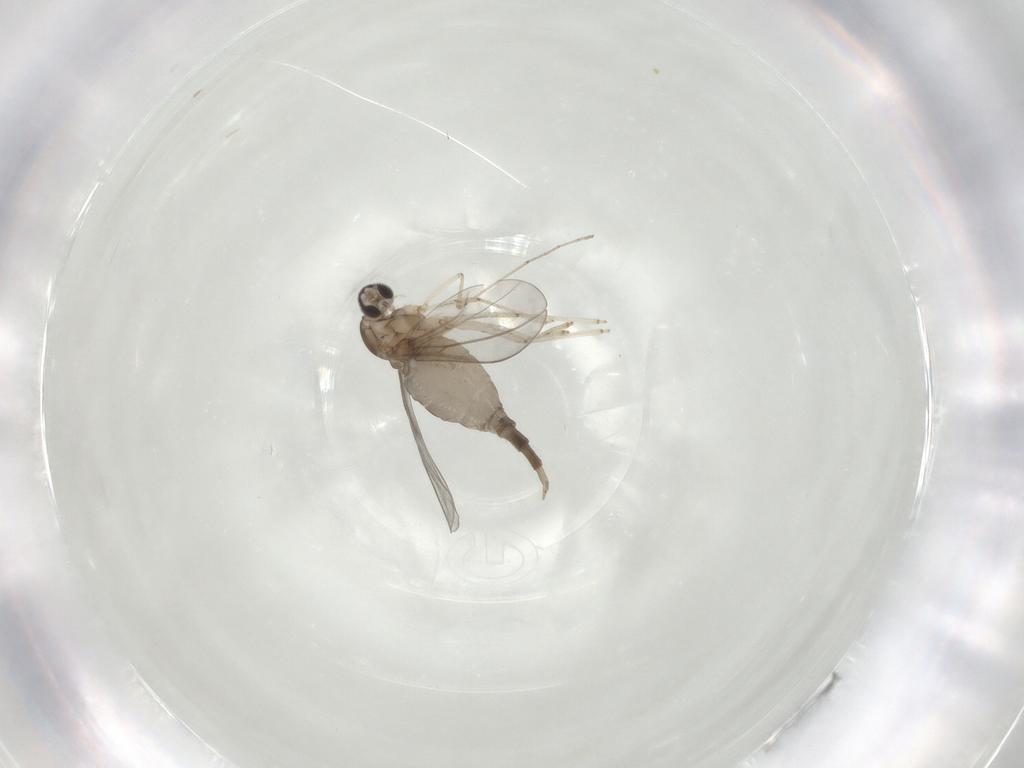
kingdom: Animalia
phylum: Arthropoda
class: Insecta
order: Diptera
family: Cecidomyiidae
